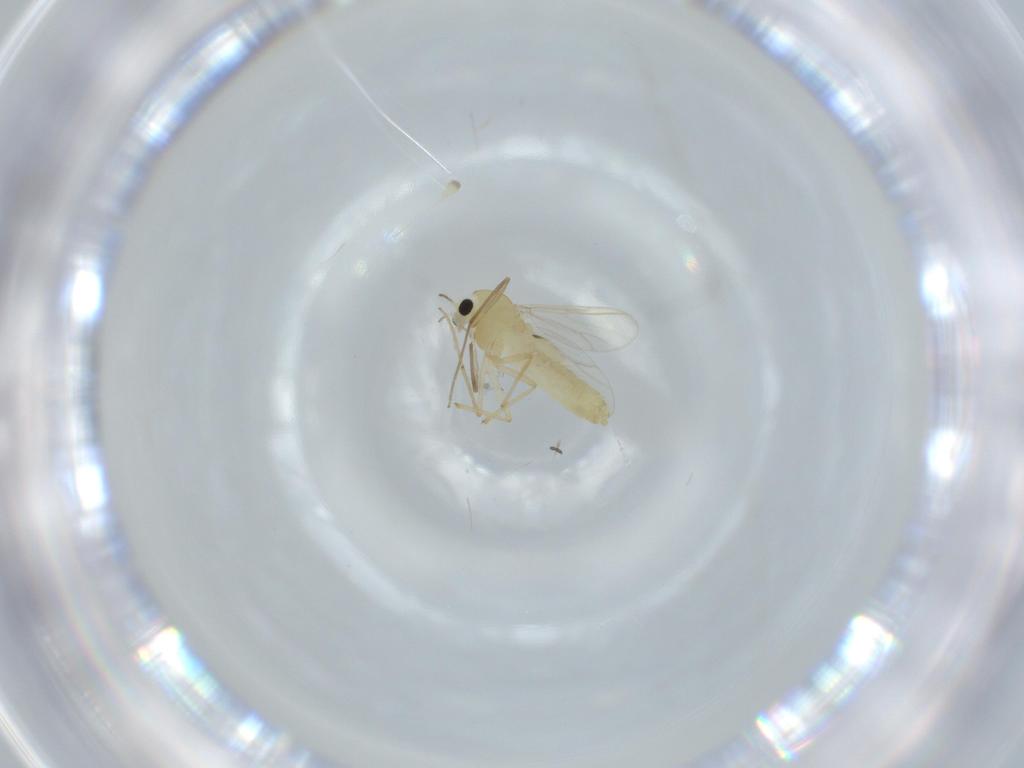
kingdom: Animalia
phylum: Arthropoda
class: Insecta
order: Diptera
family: Chironomidae
